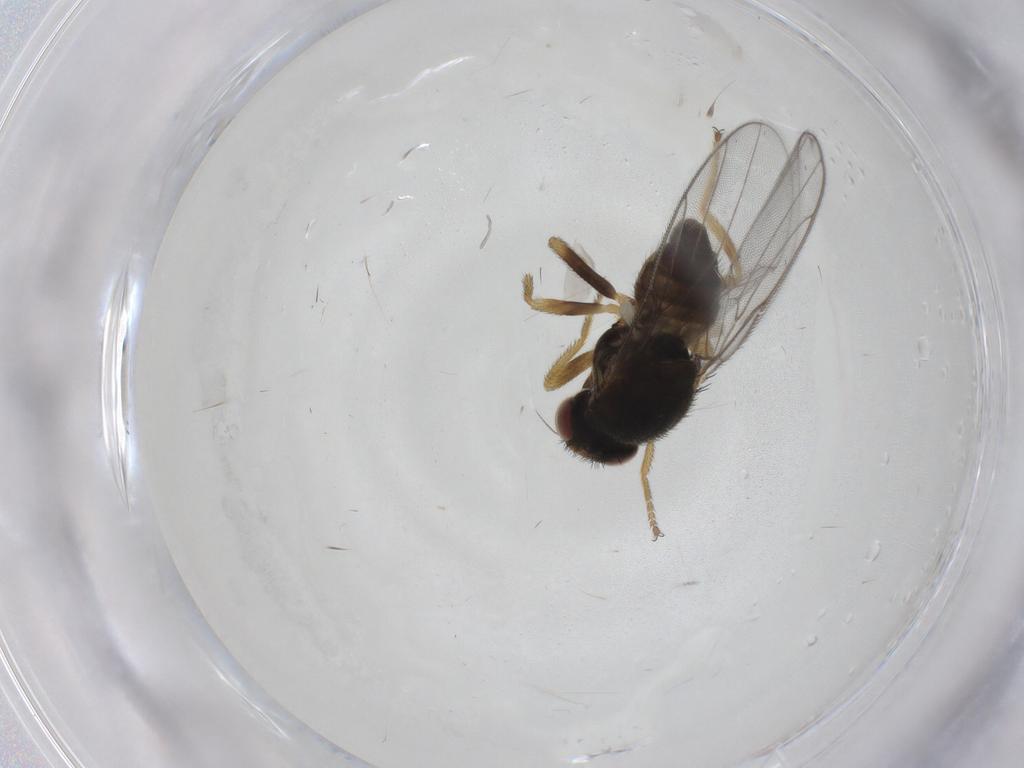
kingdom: Animalia
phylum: Arthropoda
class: Insecta
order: Diptera
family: Chloropidae
